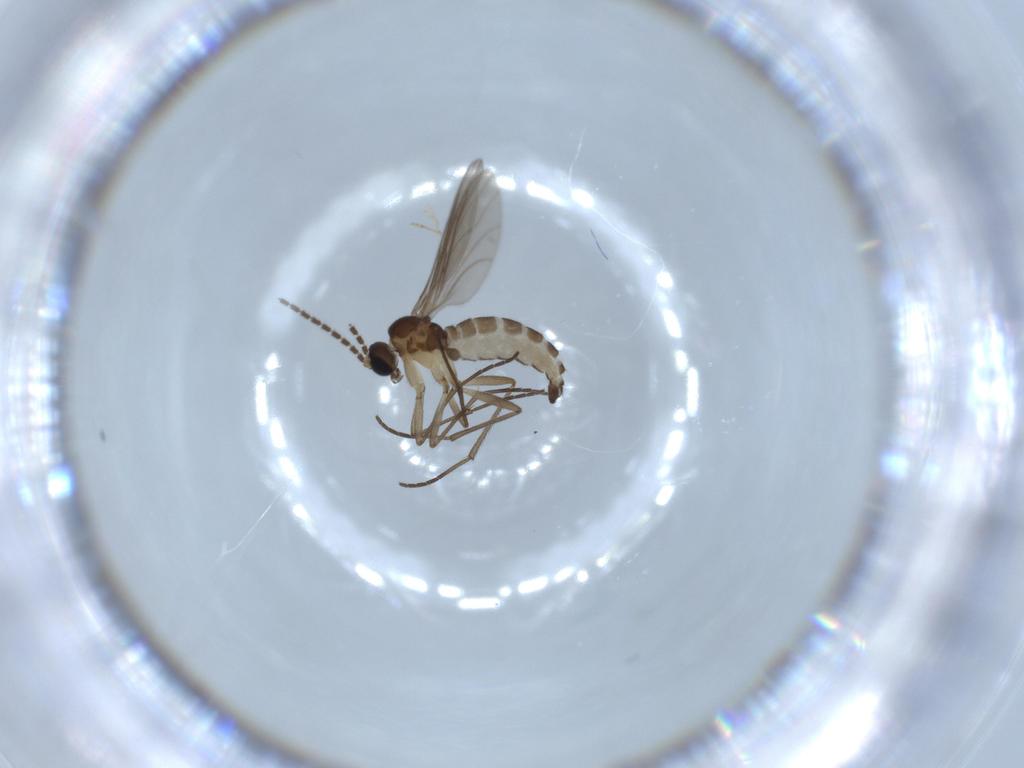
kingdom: Animalia
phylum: Arthropoda
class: Insecta
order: Diptera
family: Sciaridae
